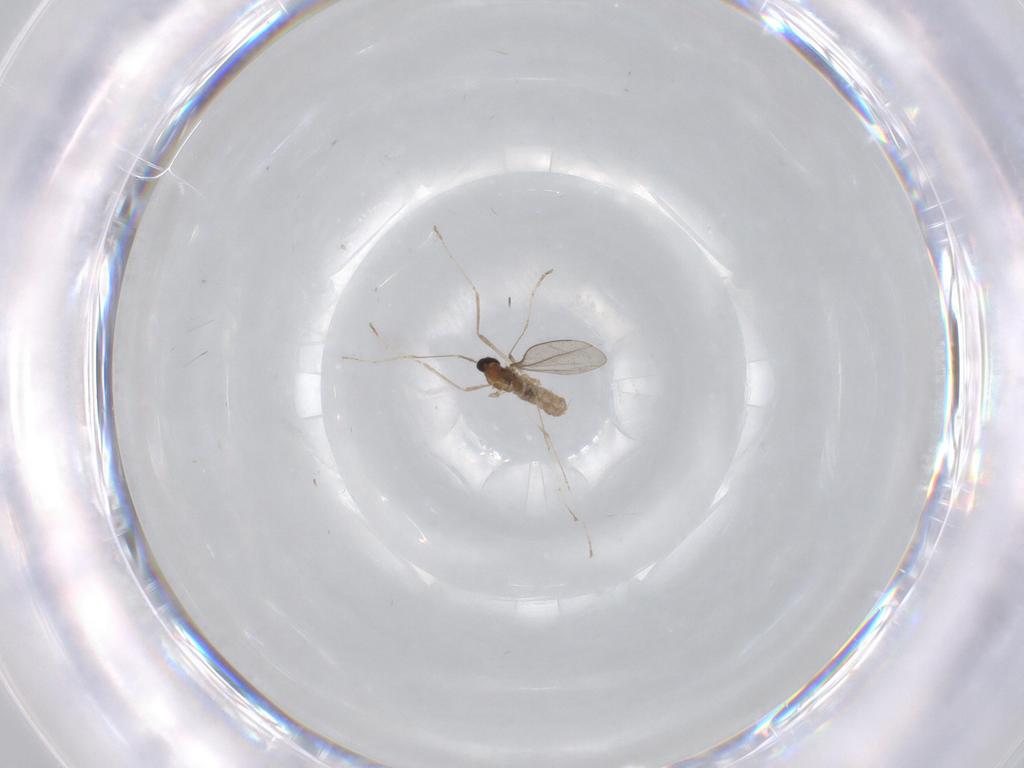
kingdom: Animalia
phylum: Arthropoda
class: Insecta
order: Diptera
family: Cecidomyiidae
